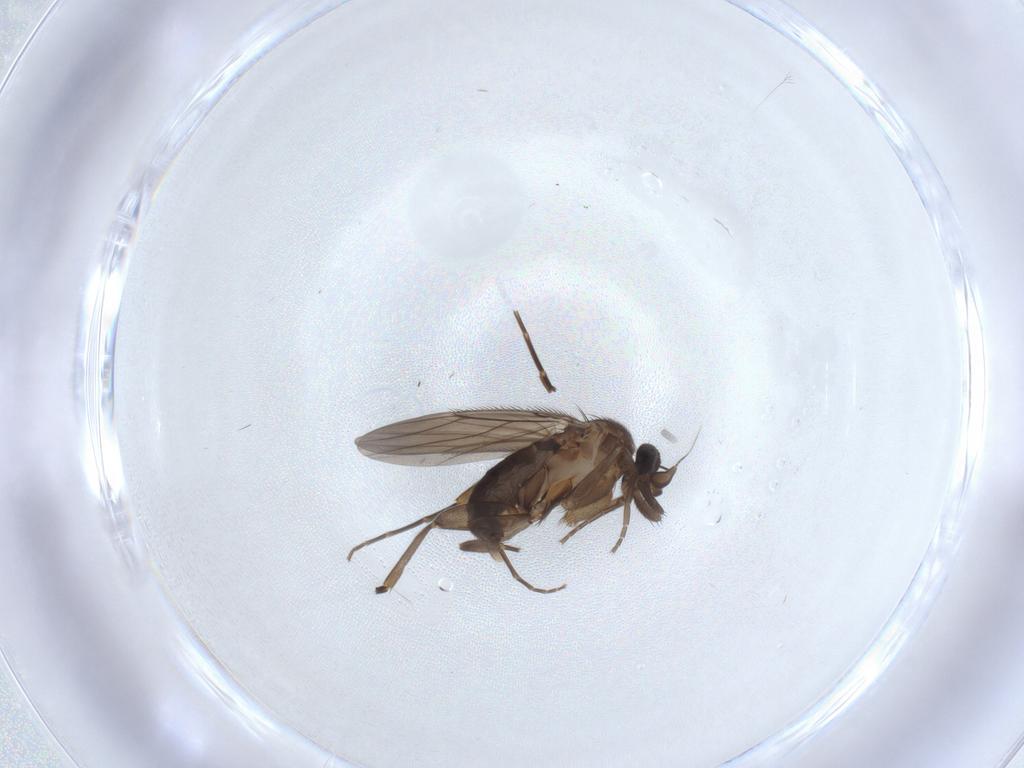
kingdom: Animalia
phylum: Arthropoda
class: Insecta
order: Diptera
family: Phoridae
